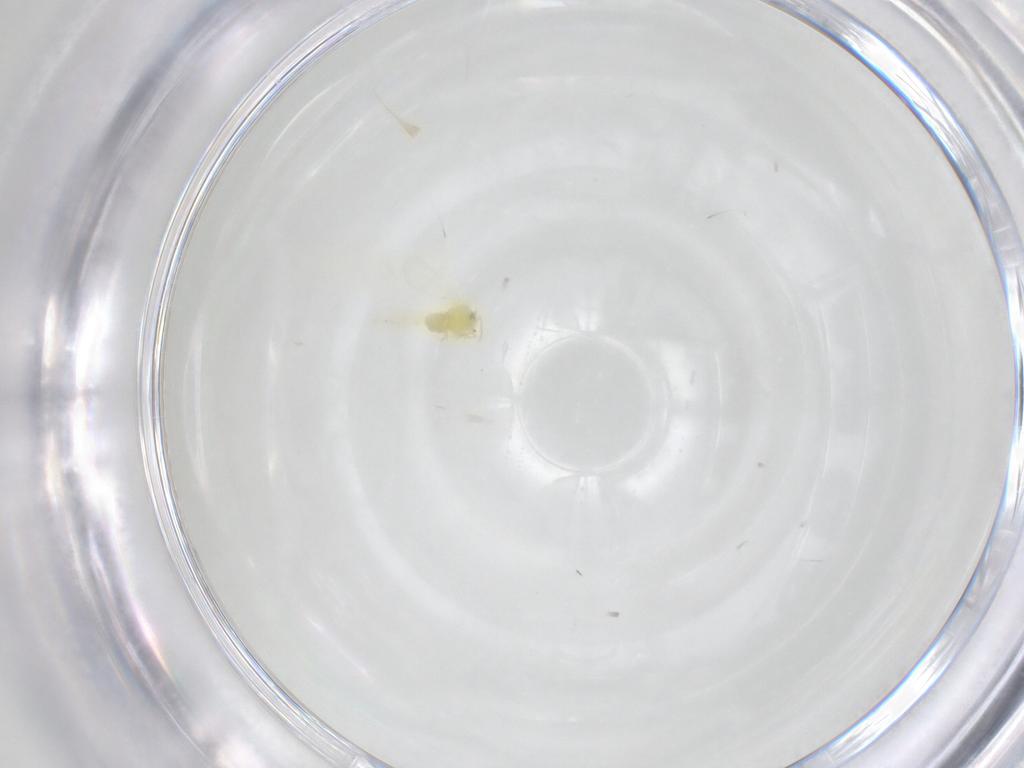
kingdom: Animalia
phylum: Arthropoda
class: Insecta
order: Hemiptera
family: Aleyrodidae
